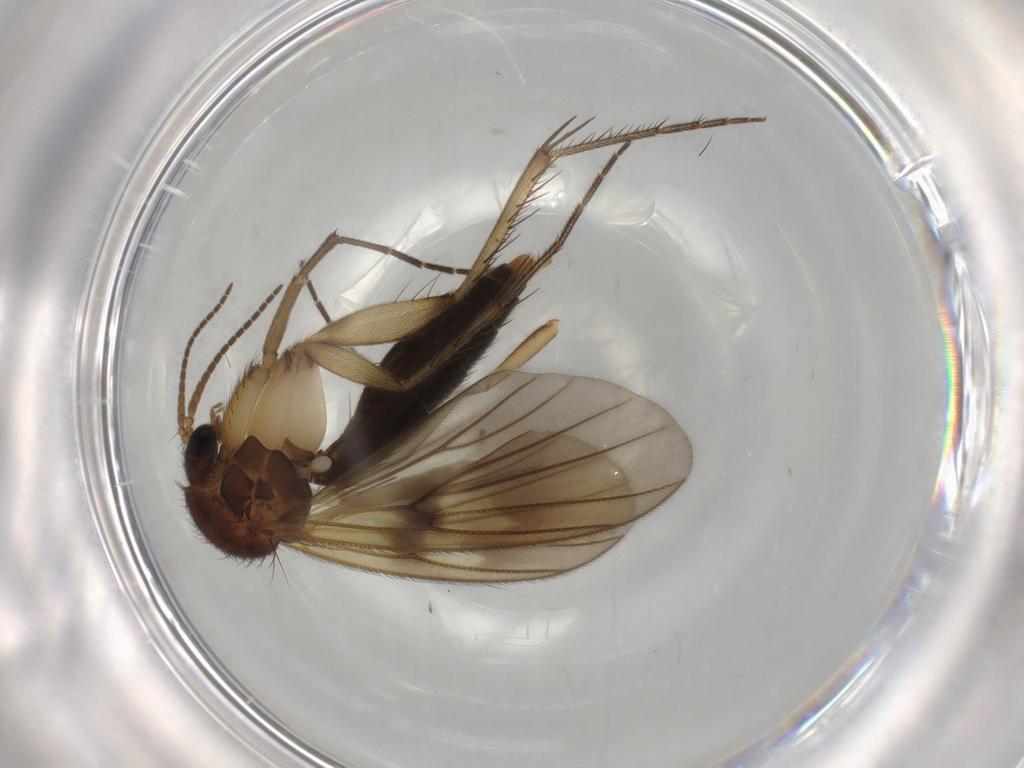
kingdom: Animalia
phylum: Arthropoda
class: Insecta
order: Diptera
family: Mycetophilidae
